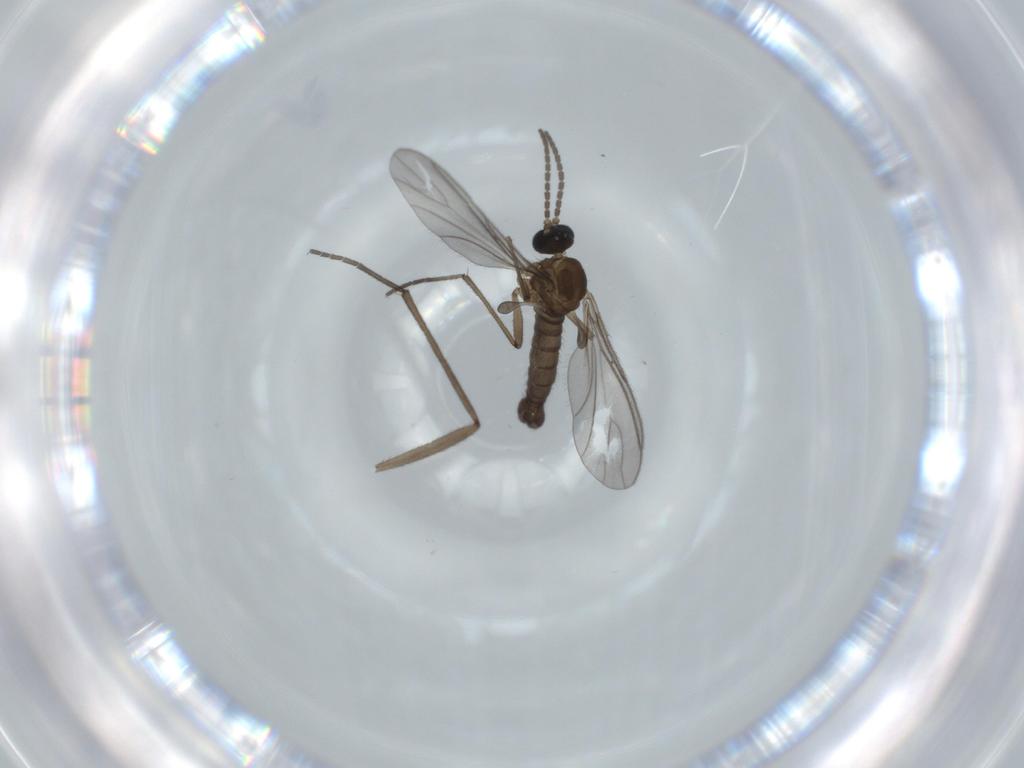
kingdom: Animalia
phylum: Arthropoda
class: Insecta
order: Diptera
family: Sciaridae
